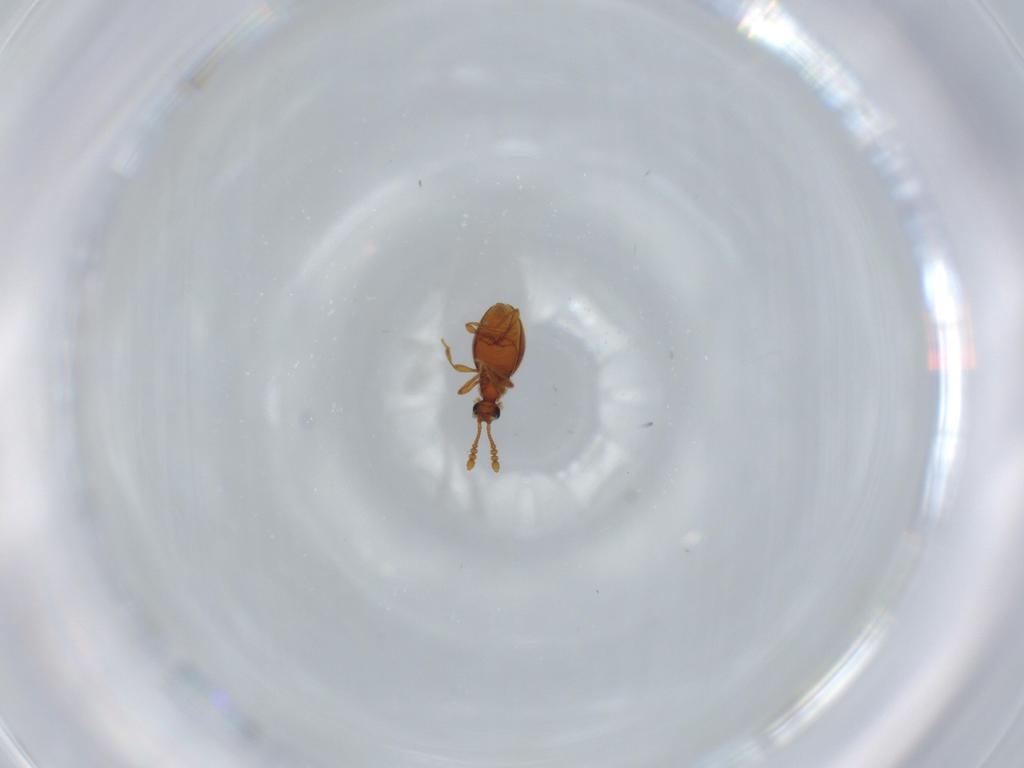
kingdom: Animalia
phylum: Arthropoda
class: Insecta
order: Coleoptera
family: Staphylinidae
